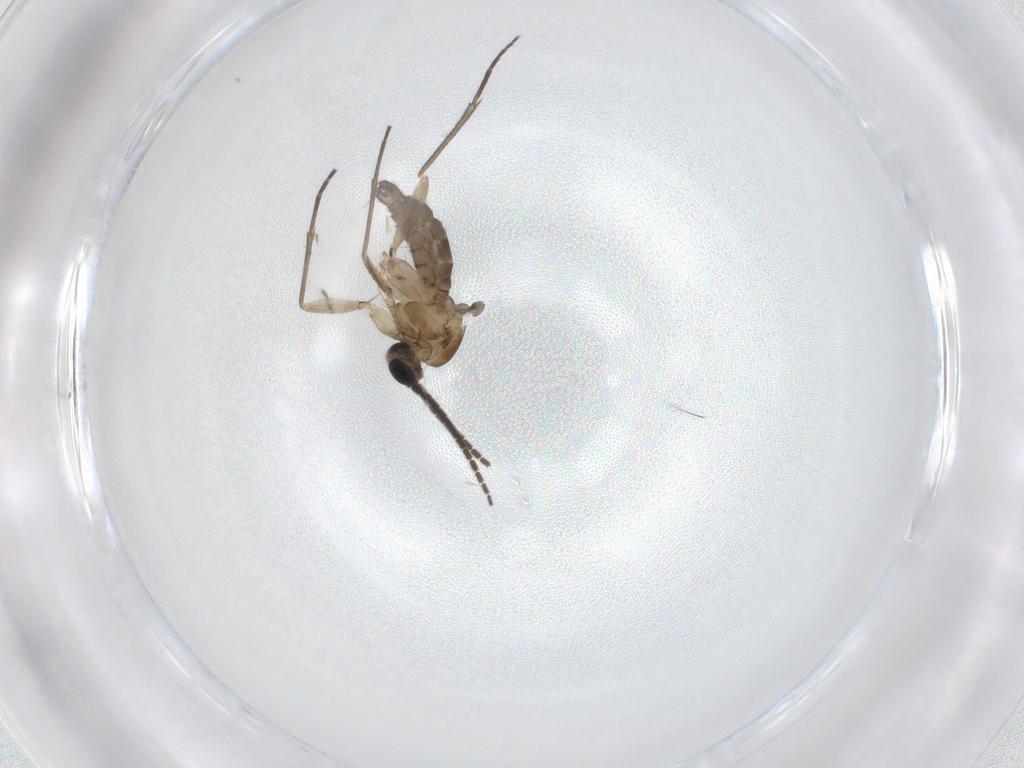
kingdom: Animalia
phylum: Arthropoda
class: Insecta
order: Diptera
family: Sciaridae
